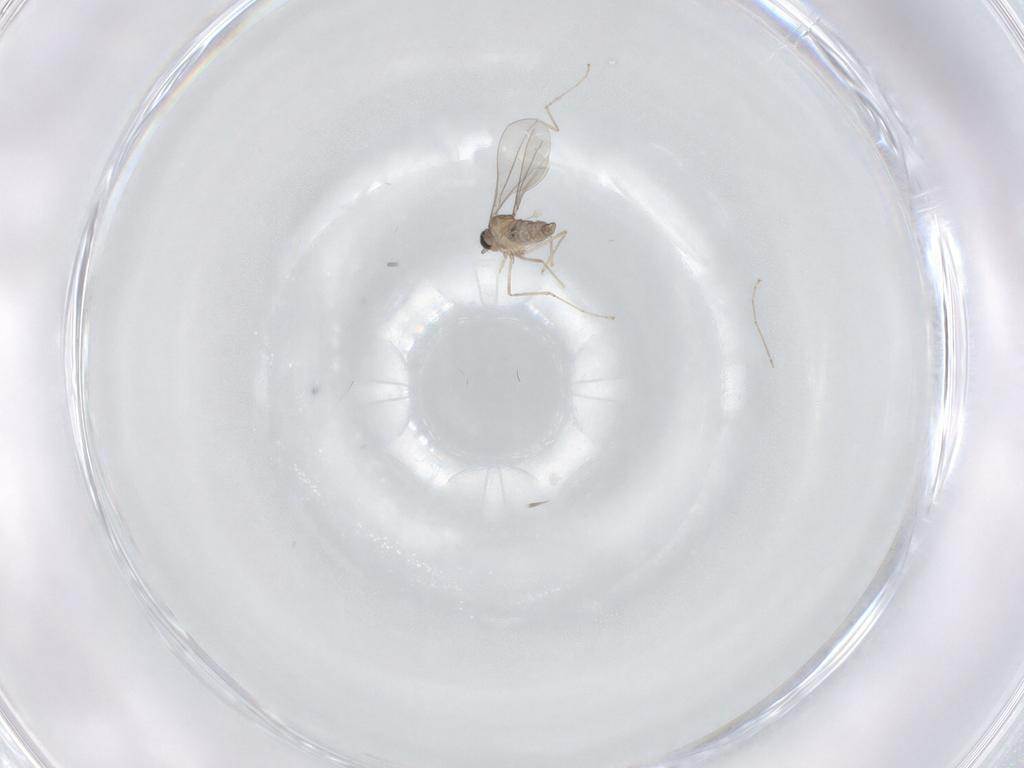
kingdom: Animalia
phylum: Arthropoda
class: Insecta
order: Diptera
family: Cecidomyiidae
